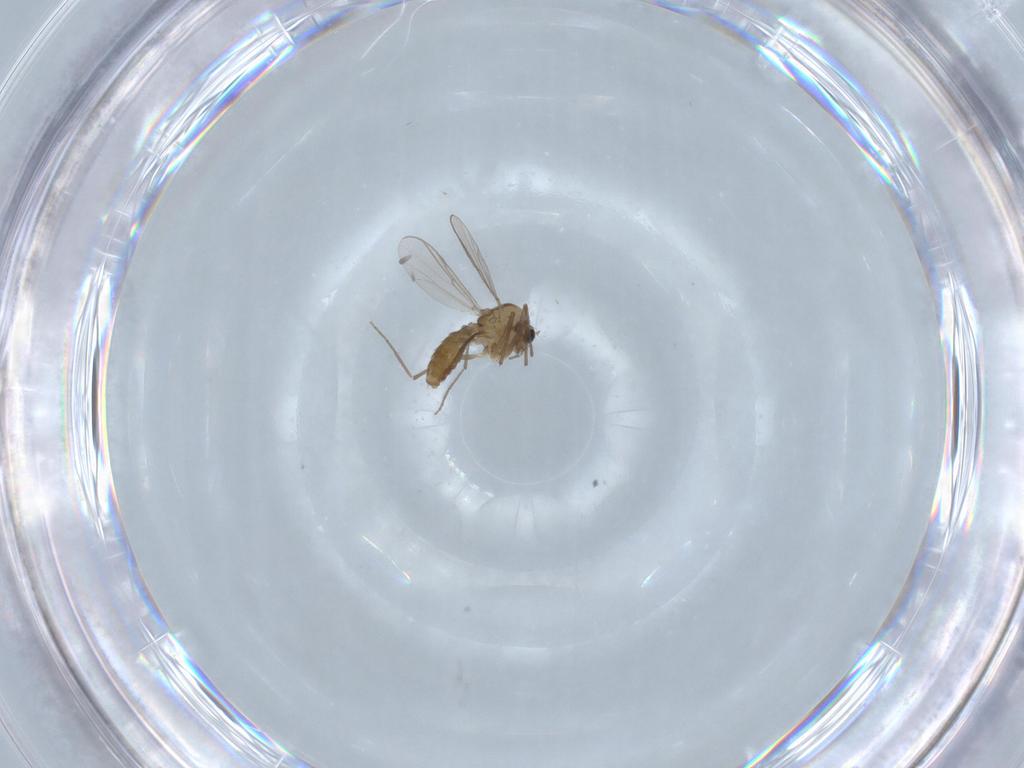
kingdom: Animalia
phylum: Arthropoda
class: Insecta
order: Diptera
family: Chironomidae
